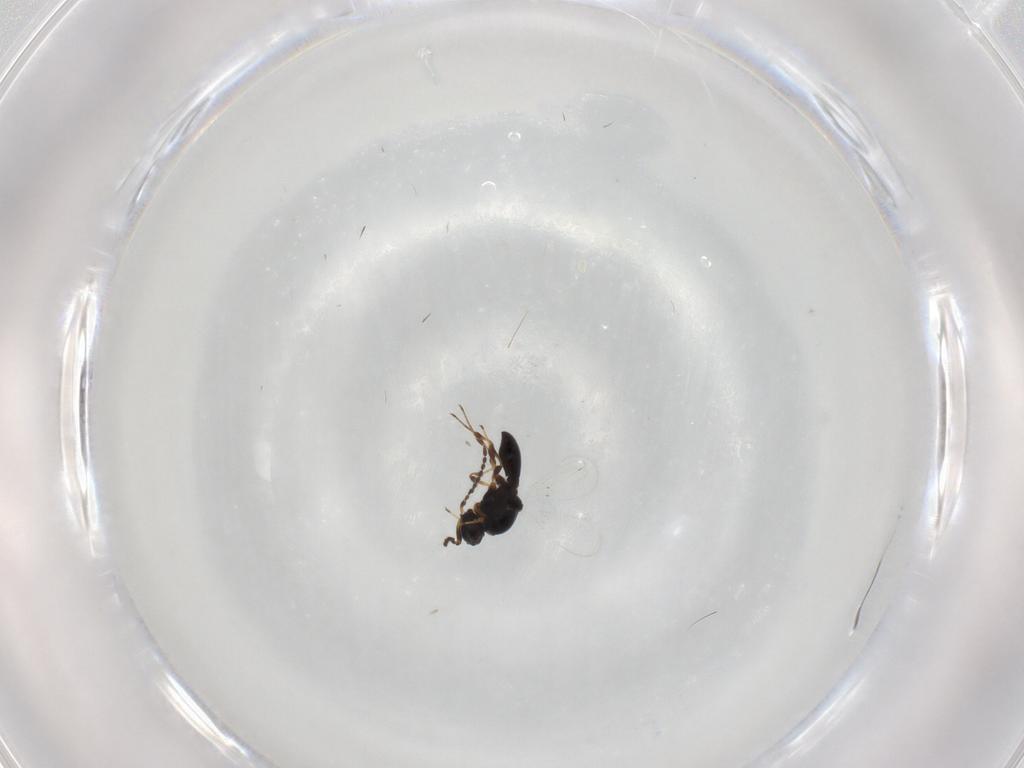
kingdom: Animalia
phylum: Arthropoda
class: Insecta
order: Hymenoptera
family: Platygastridae
